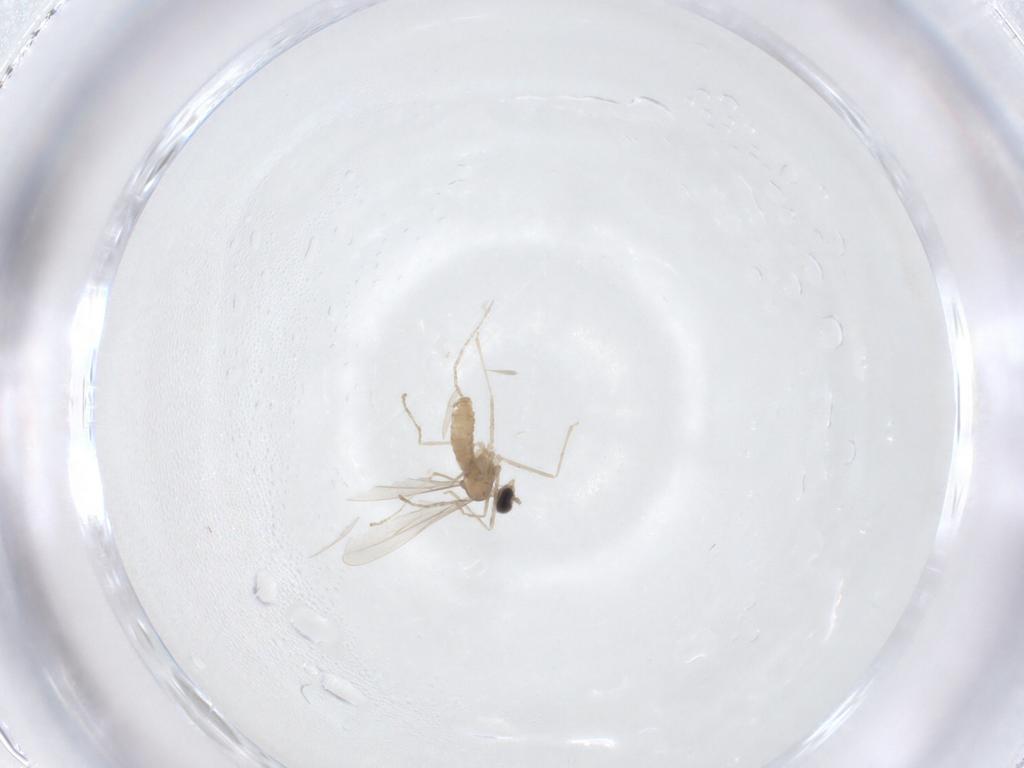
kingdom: Animalia
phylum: Arthropoda
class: Insecta
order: Diptera
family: Cecidomyiidae
